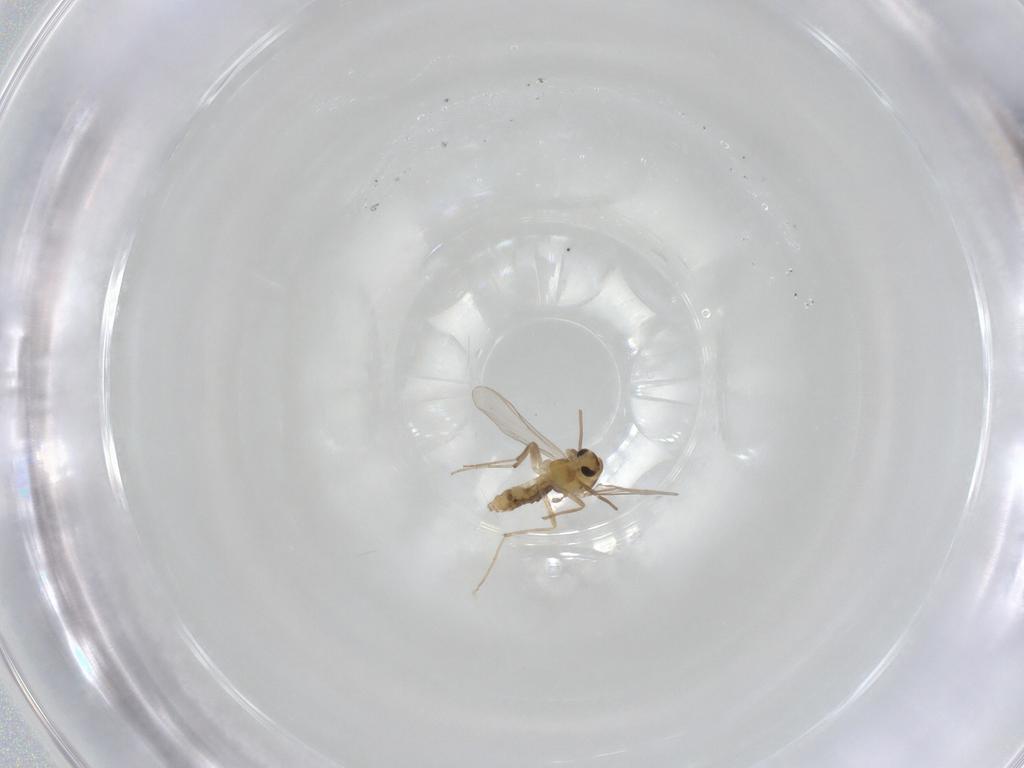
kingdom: Animalia
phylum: Arthropoda
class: Insecta
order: Diptera
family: Chironomidae
